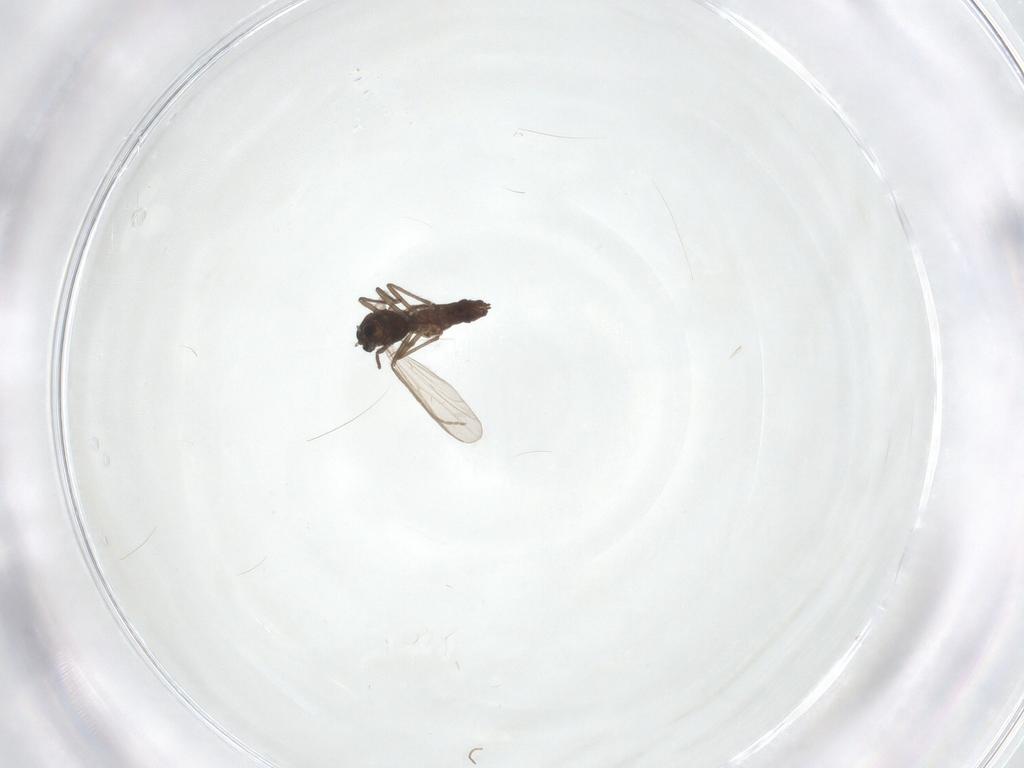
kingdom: Animalia
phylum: Arthropoda
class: Insecta
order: Diptera
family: Chironomidae
